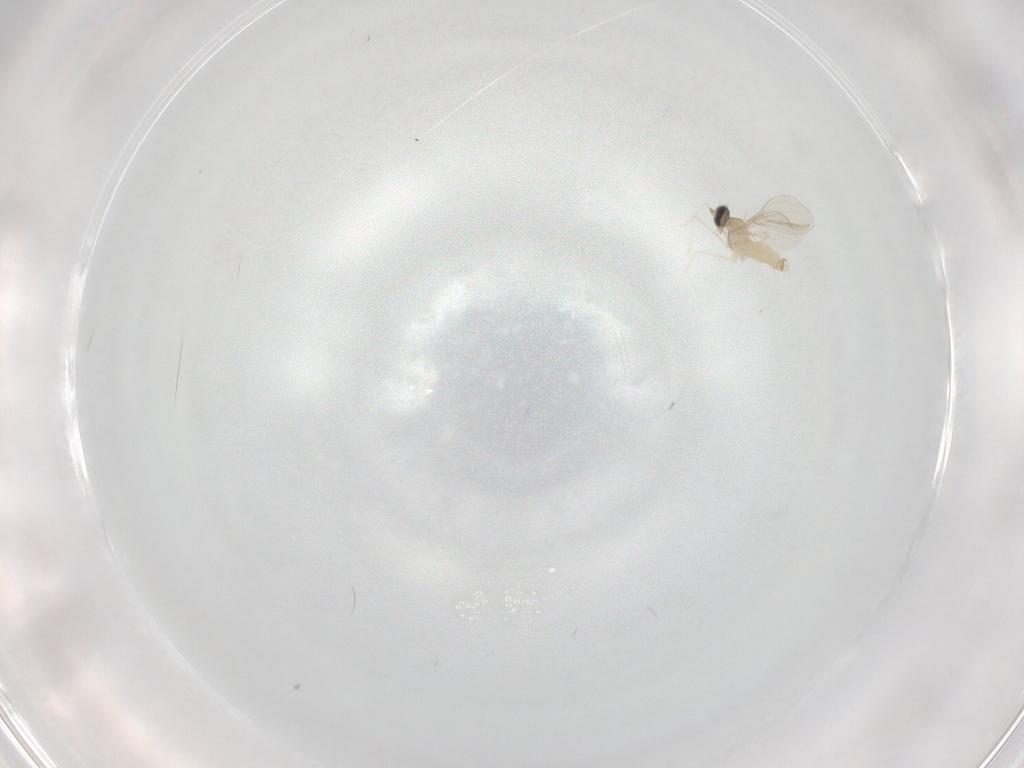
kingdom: Animalia
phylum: Arthropoda
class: Insecta
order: Diptera
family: Cecidomyiidae
